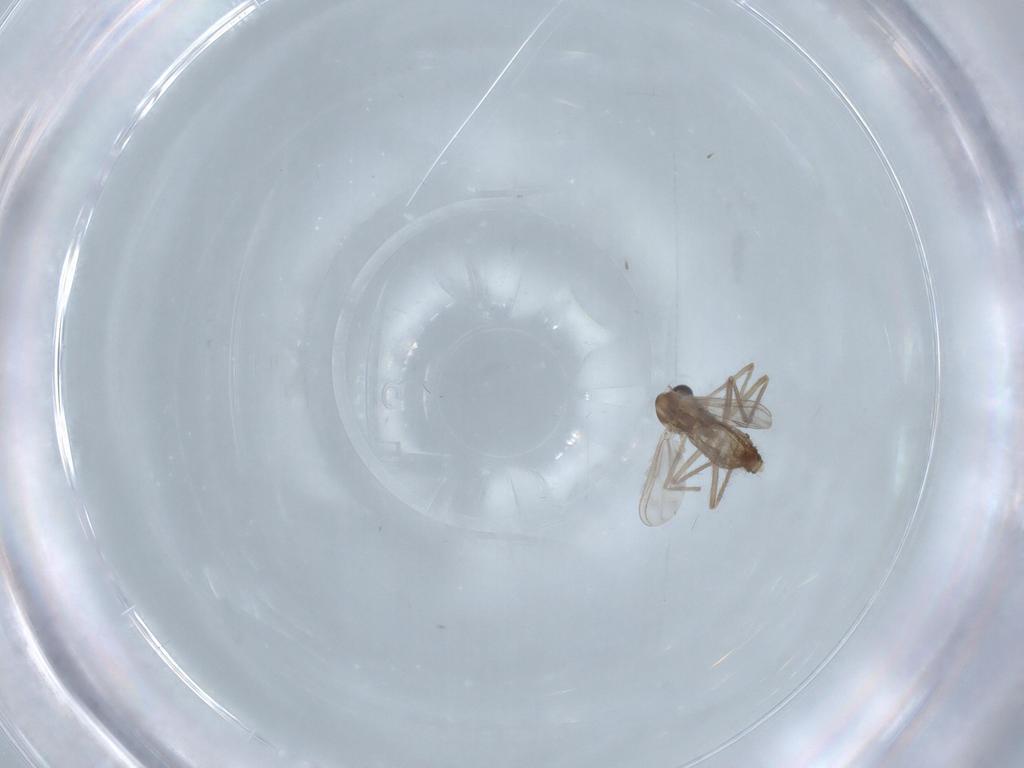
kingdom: Animalia
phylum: Arthropoda
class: Insecta
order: Diptera
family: Chironomidae
